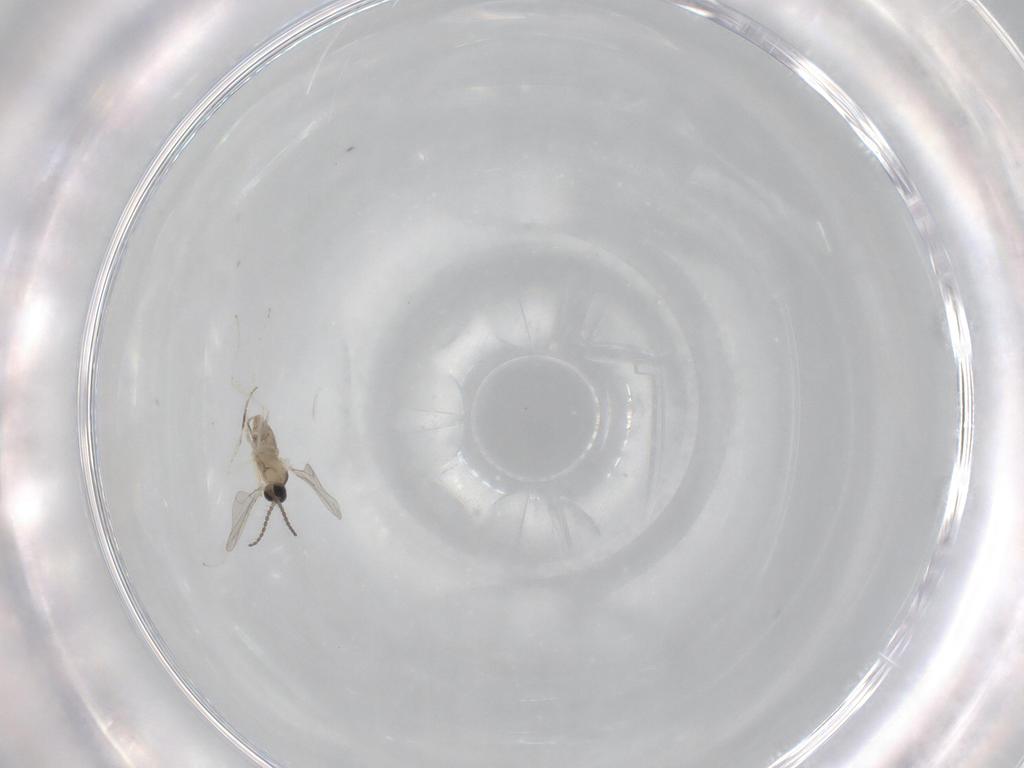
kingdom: Animalia
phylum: Arthropoda
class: Insecta
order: Diptera
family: Cecidomyiidae
